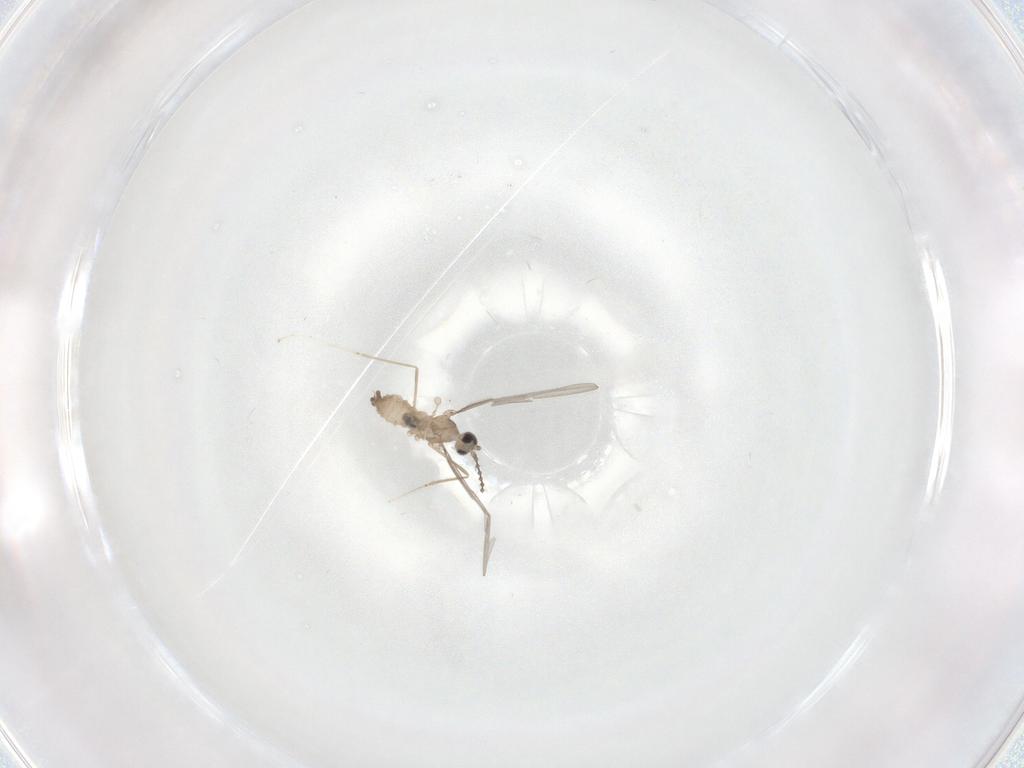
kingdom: Animalia
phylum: Arthropoda
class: Insecta
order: Diptera
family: Cecidomyiidae
